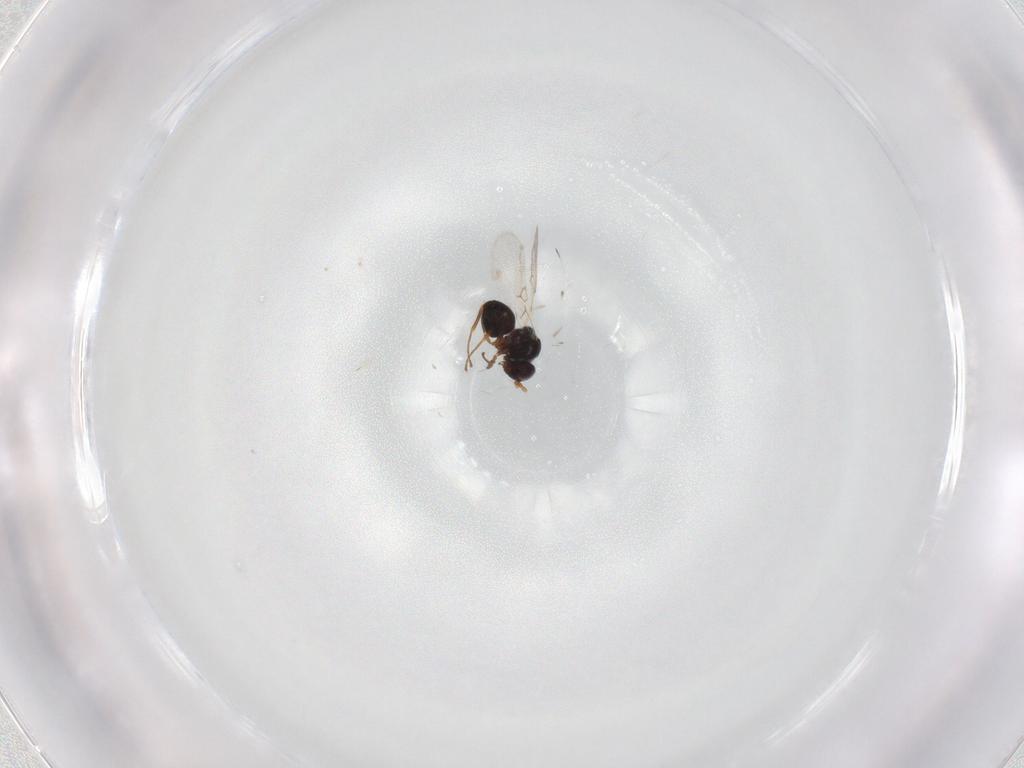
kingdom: Animalia
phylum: Arthropoda
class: Insecta
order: Hymenoptera
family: Figitidae
